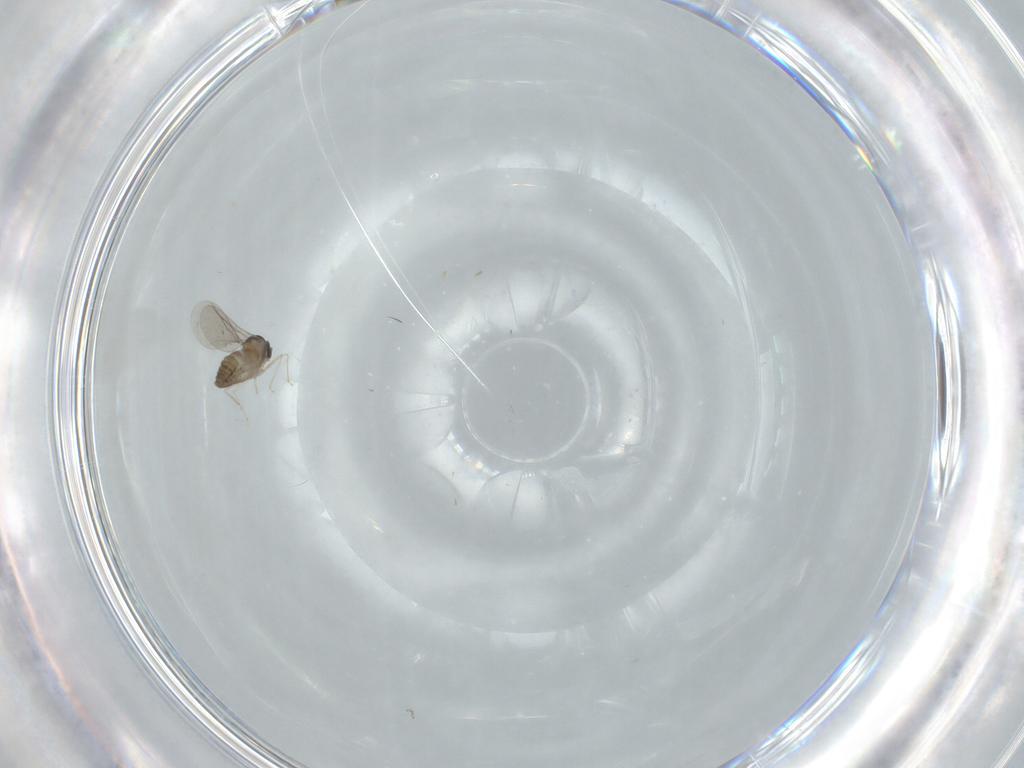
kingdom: Animalia
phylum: Arthropoda
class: Insecta
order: Diptera
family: Cecidomyiidae
